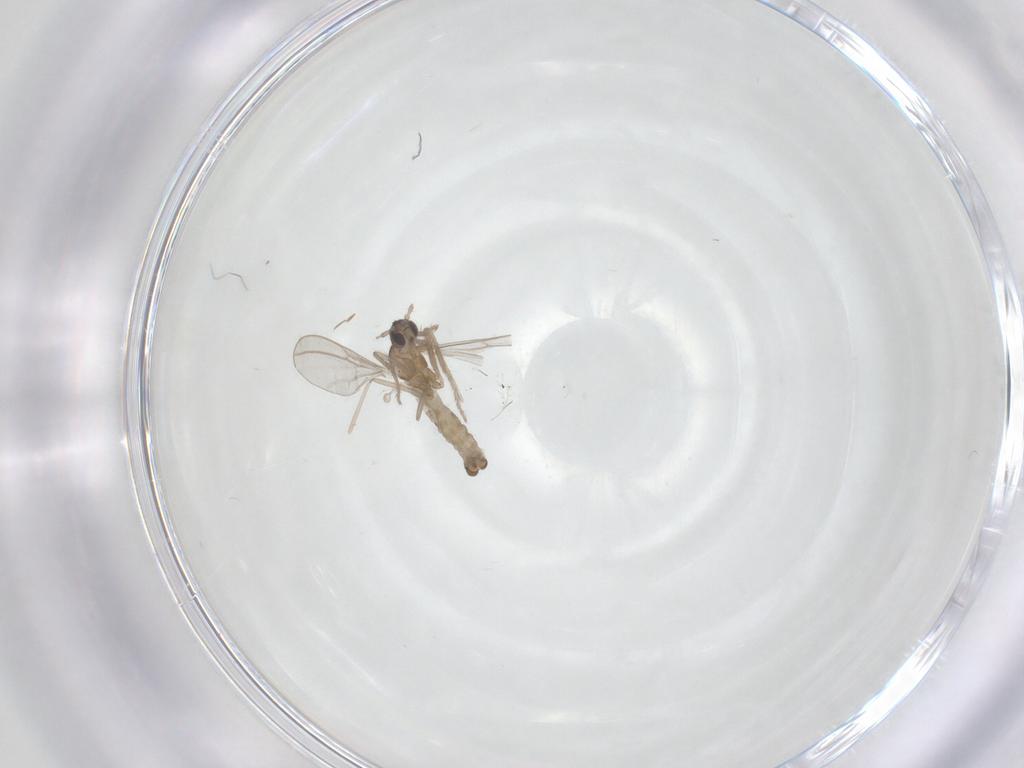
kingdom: Animalia
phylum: Arthropoda
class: Insecta
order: Diptera
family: Cecidomyiidae
